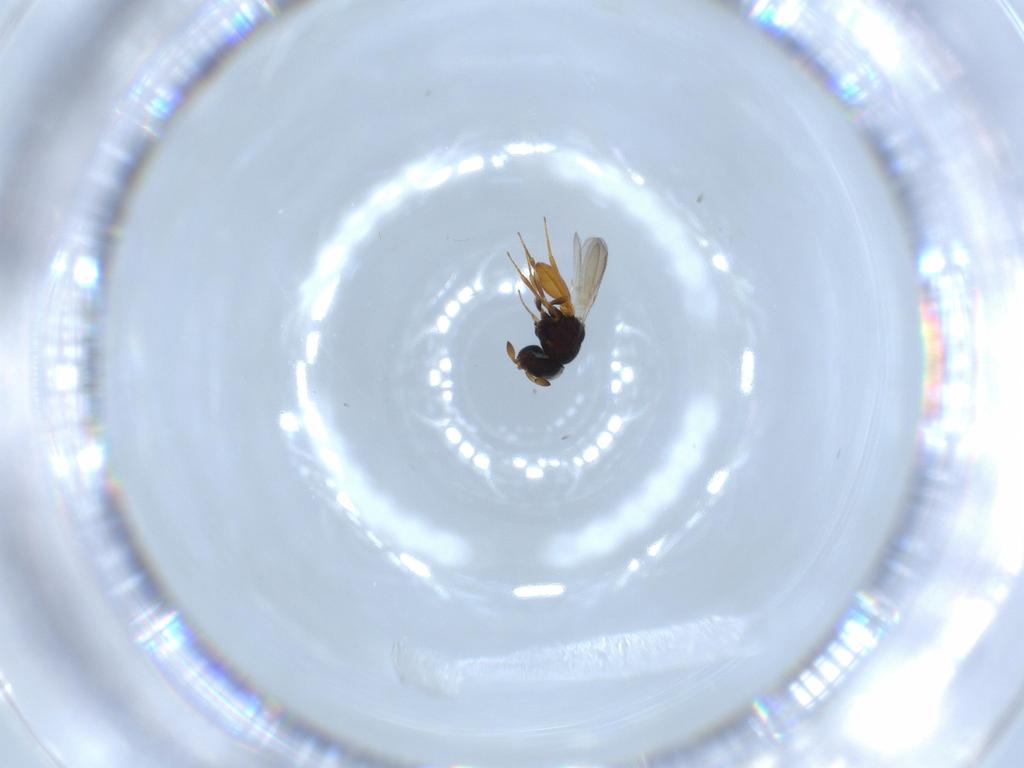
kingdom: Animalia
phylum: Arthropoda
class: Insecta
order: Hymenoptera
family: Scelionidae
